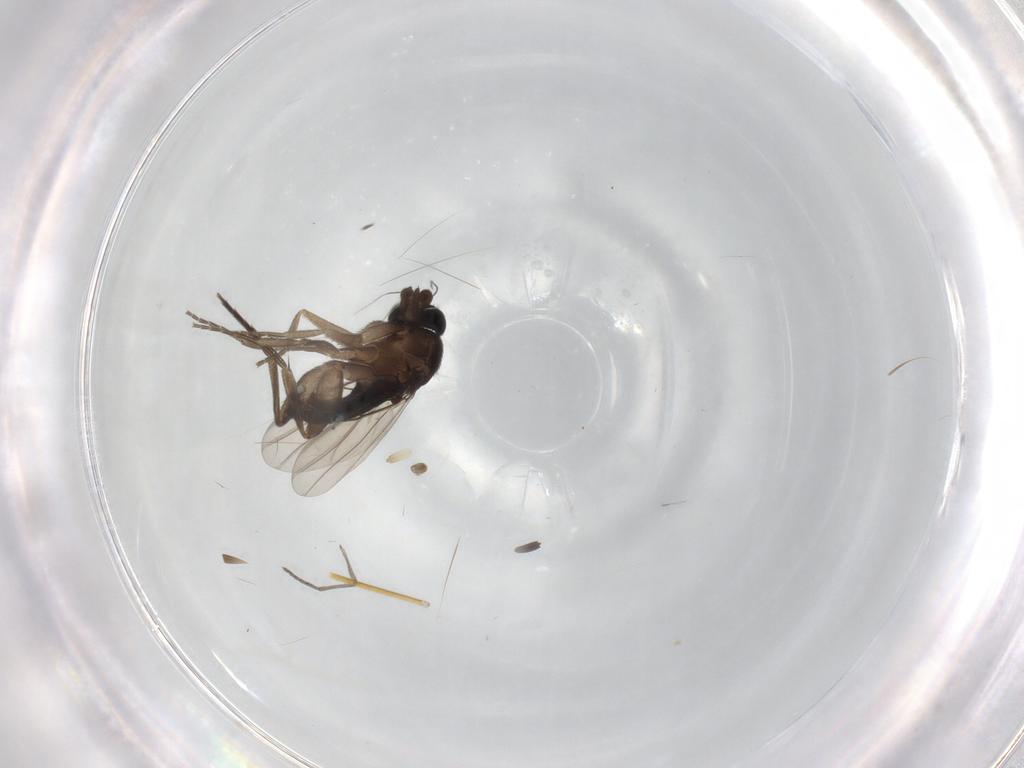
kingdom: Animalia
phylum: Arthropoda
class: Insecta
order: Diptera
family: Phoridae
